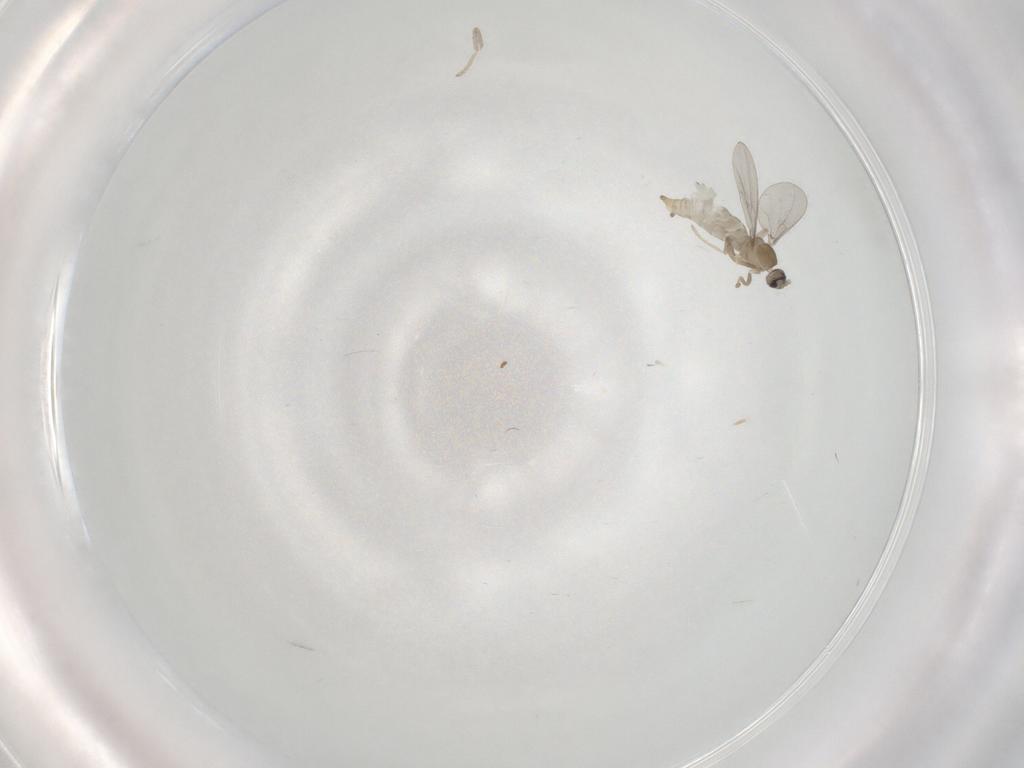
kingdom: Animalia
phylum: Arthropoda
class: Insecta
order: Diptera
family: Cecidomyiidae
